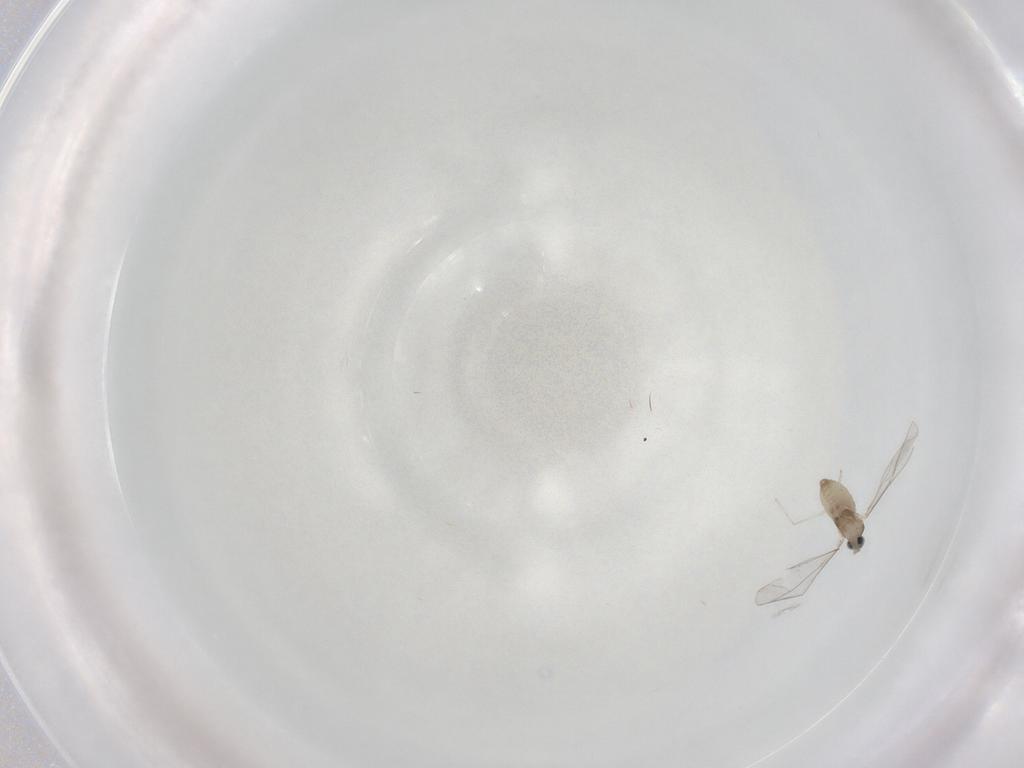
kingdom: Animalia
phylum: Arthropoda
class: Insecta
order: Diptera
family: Cecidomyiidae
